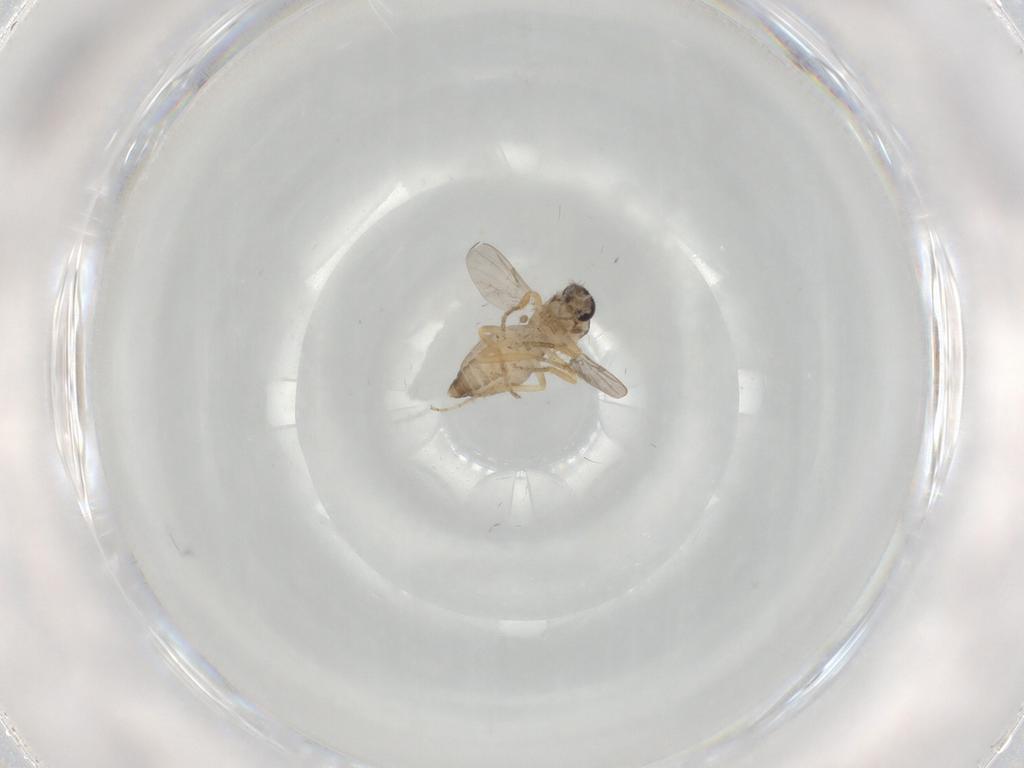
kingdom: Animalia
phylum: Arthropoda
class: Insecta
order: Diptera
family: Ceratopogonidae
